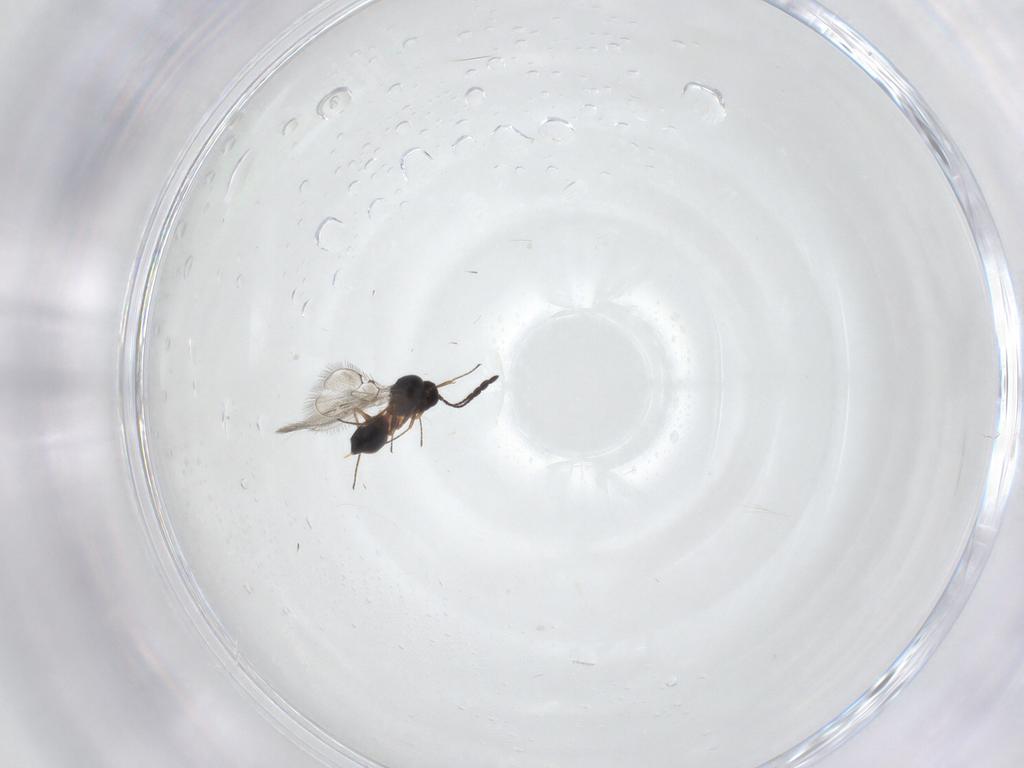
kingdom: Animalia
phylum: Arthropoda
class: Insecta
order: Hymenoptera
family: Figitidae
